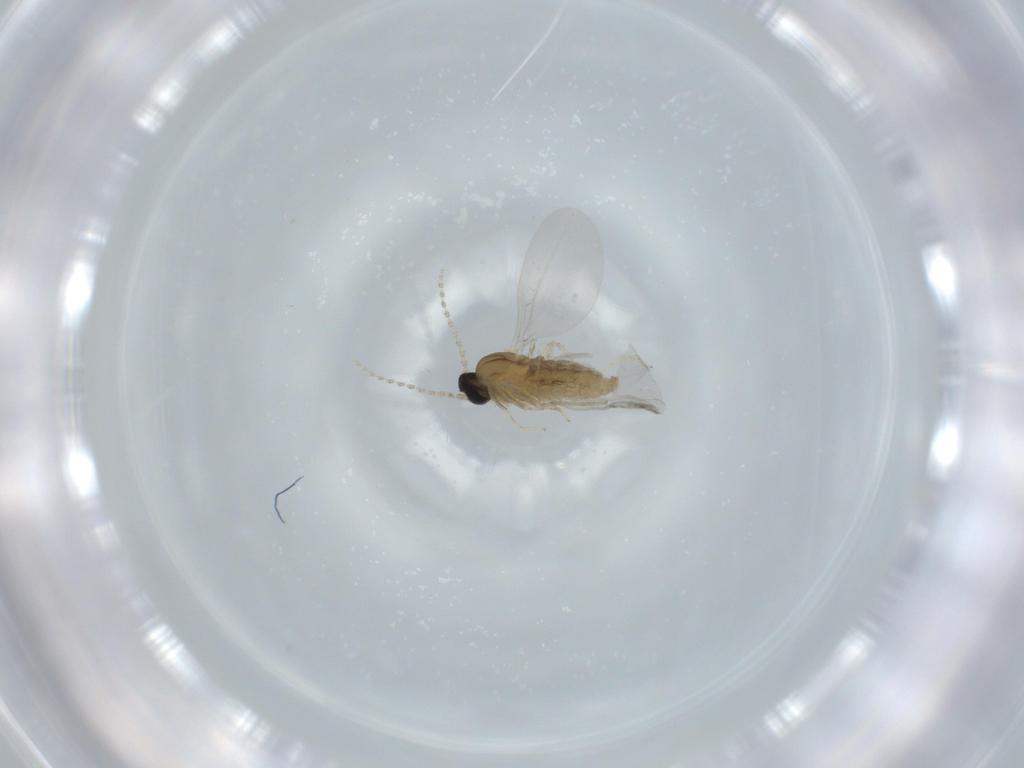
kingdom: Animalia
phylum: Arthropoda
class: Insecta
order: Diptera
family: Cecidomyiidae
